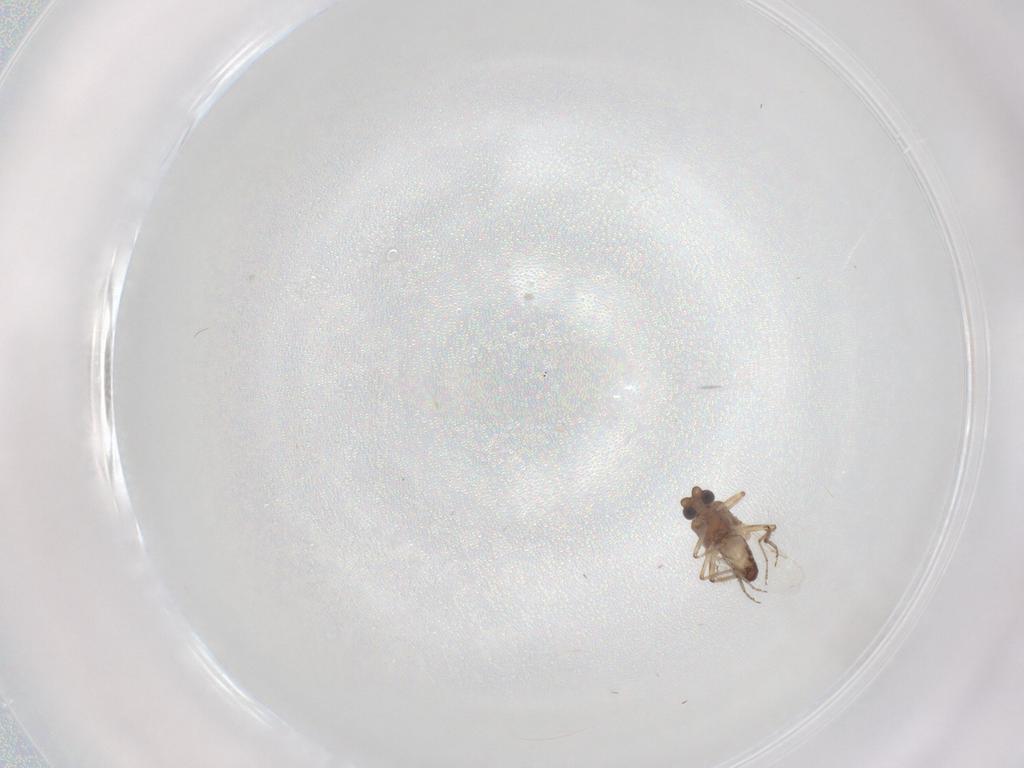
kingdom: Animalia
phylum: Arthropoda
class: Insecta
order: Diptera
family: Ceratopogonidae
